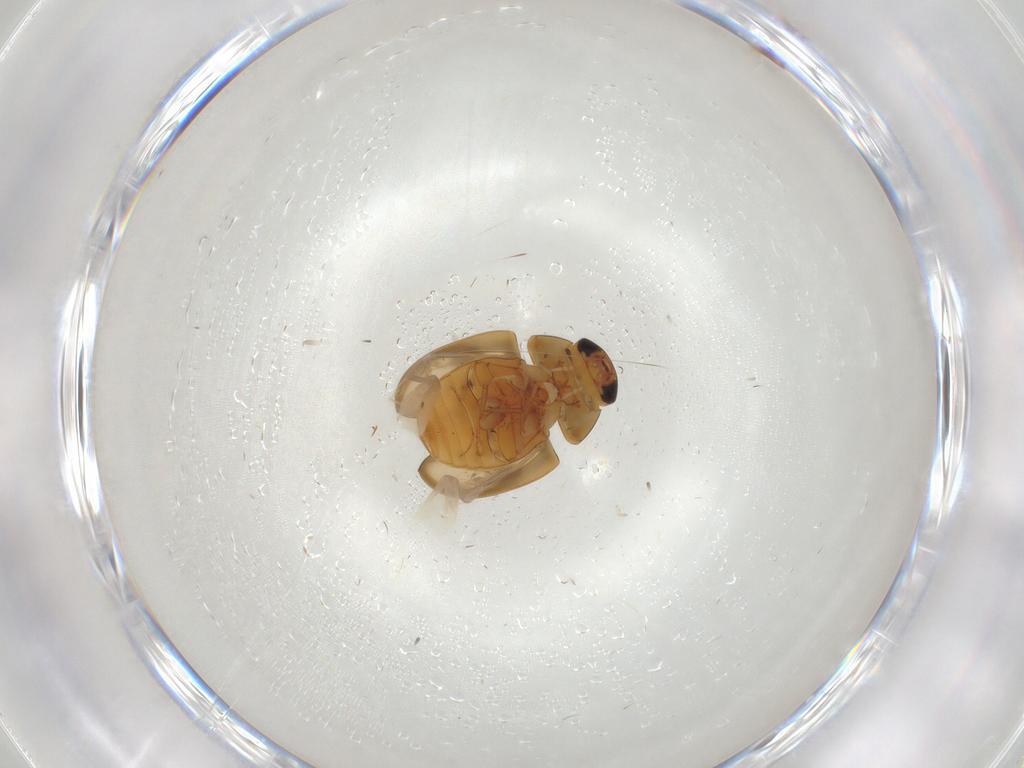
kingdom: Animalia
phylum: Arthropoda
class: Insecta
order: Coleoptera
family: Phalacridae
